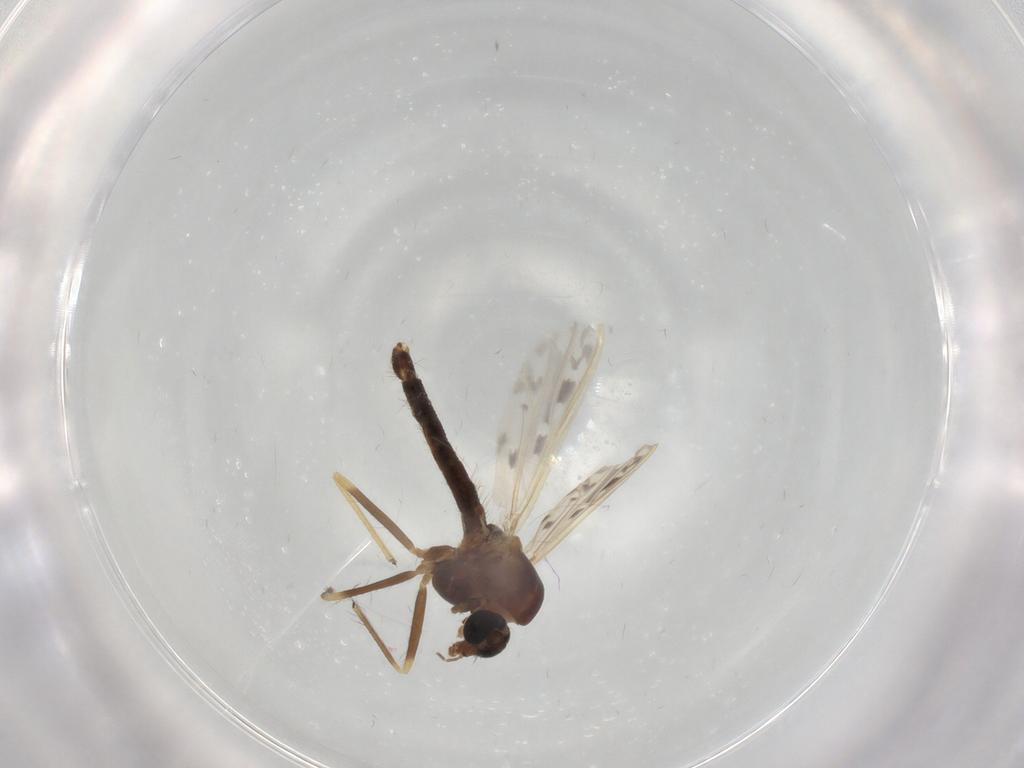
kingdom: Animalia
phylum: Arthropoda
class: Insecta
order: Diptera
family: Chironomidae
